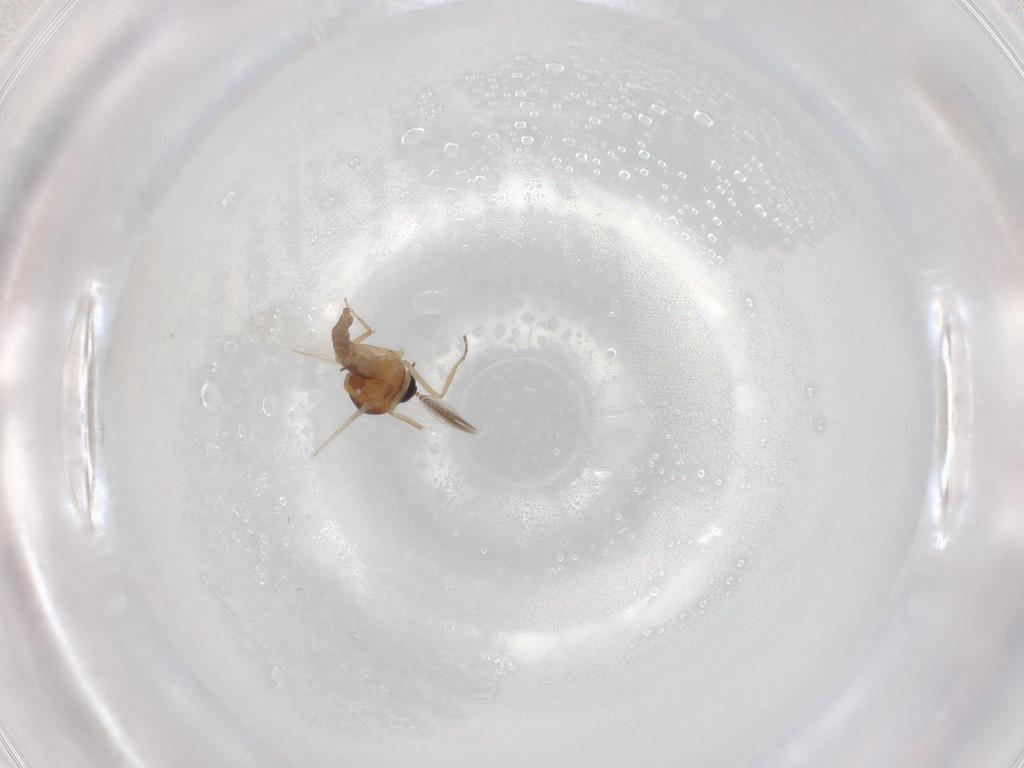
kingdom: Animalia
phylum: Arthropoda
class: Insecta
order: Diptera
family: Ceratopogonidae
